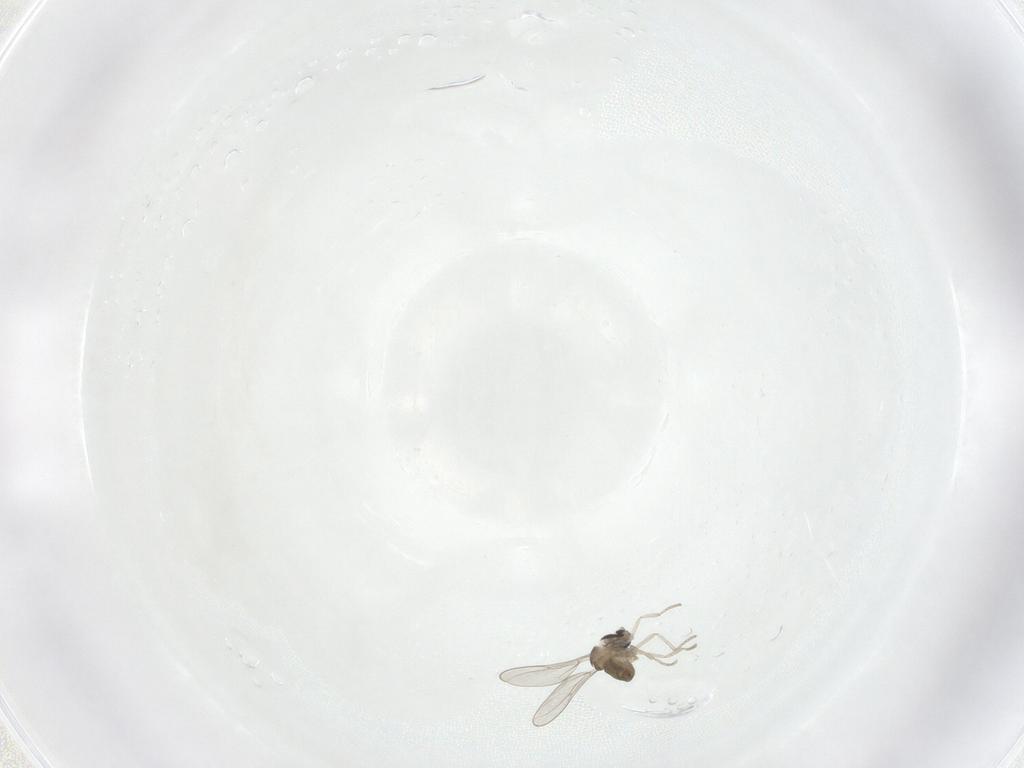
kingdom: Animalia
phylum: Arthropoda
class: Insecta
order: Diptera
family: Cecidomyiidae
